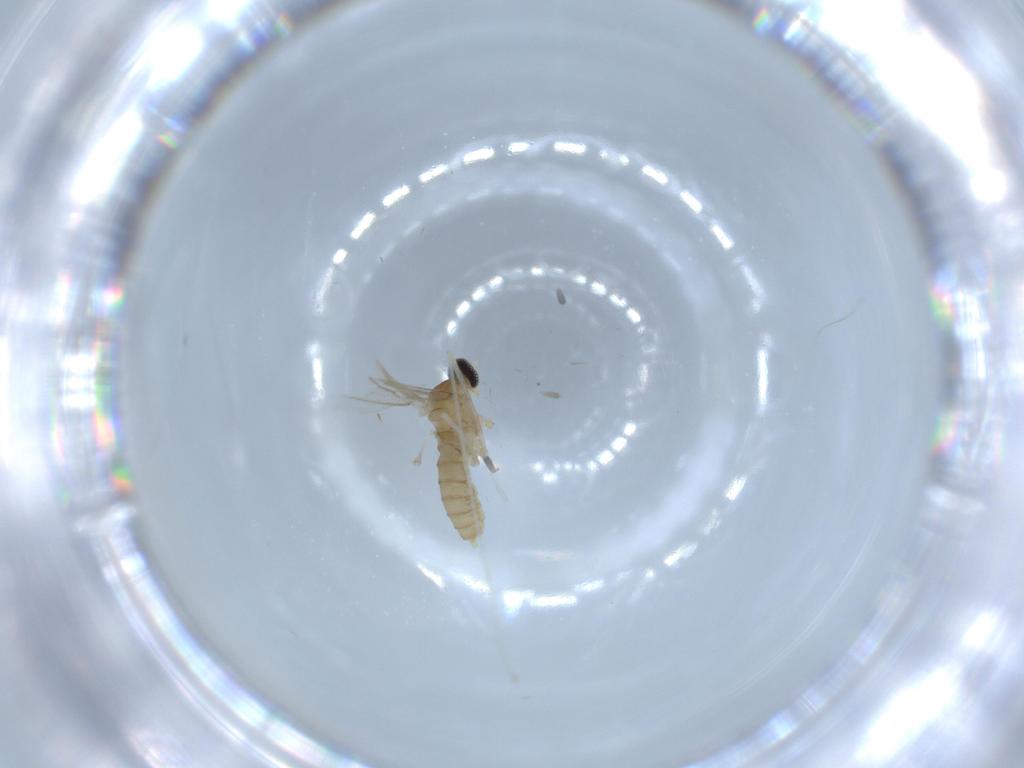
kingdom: Animalia
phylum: Arthropoda
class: Insecta
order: Diptera
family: Cecidomyiidae
